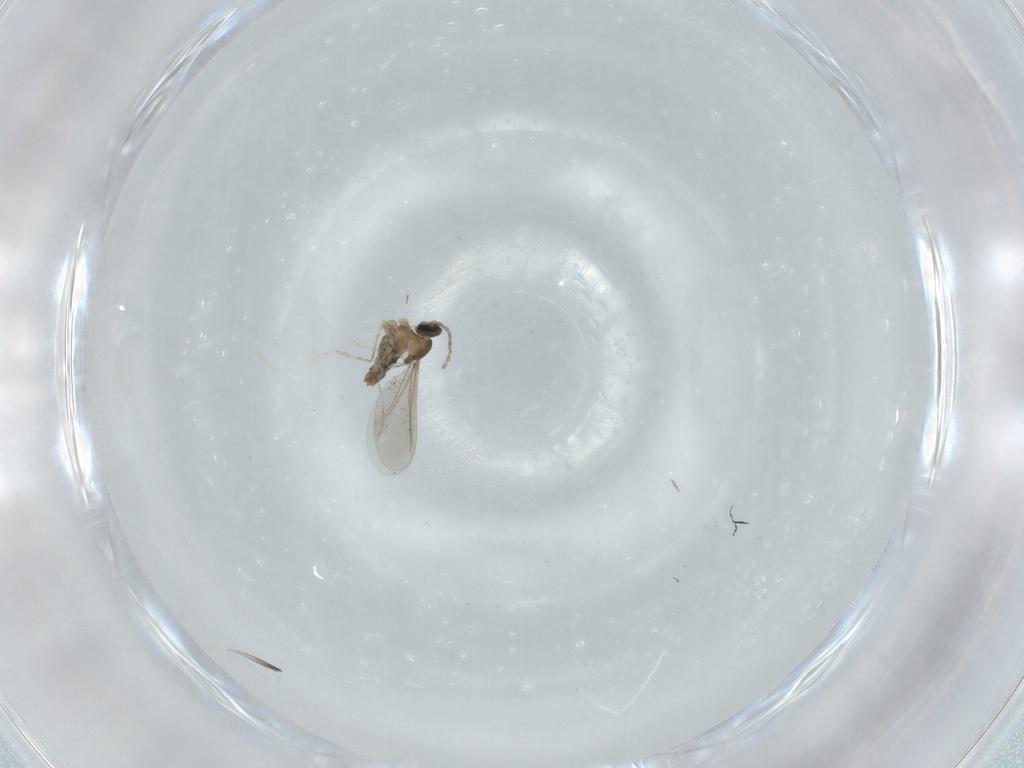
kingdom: Animalia
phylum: Arthropoda
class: Insecta
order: Diptera
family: Cecidomyiidae
